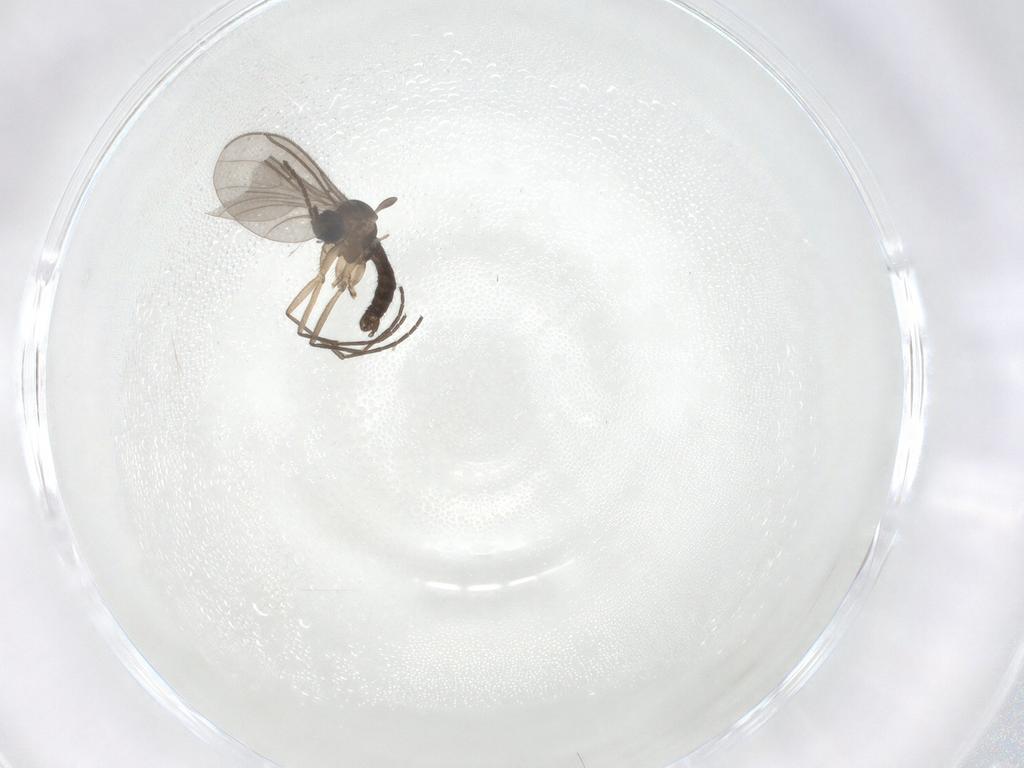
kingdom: Animalia
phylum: Arthropoda
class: Insecta
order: Diptera
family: Sciaridae
